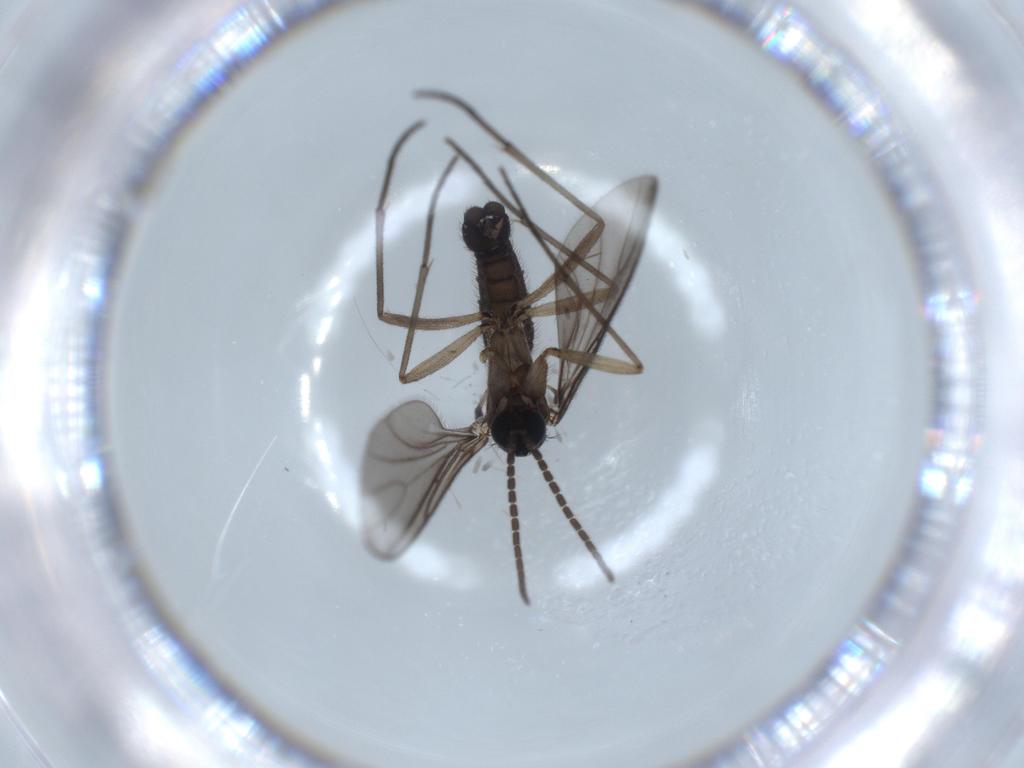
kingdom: Animalia
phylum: Arthropoda
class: Insecta
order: Diptera
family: Sciaridae
